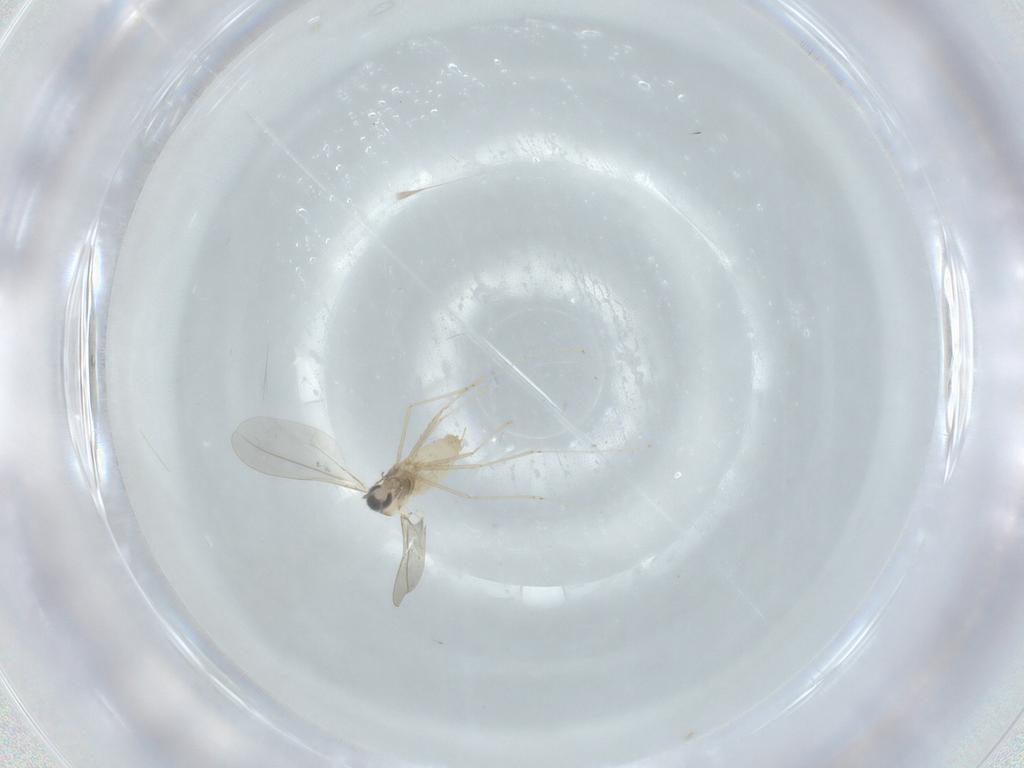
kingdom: Animalia
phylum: Arthropoda
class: Insecta
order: Diptera
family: Cecidomyiidae
